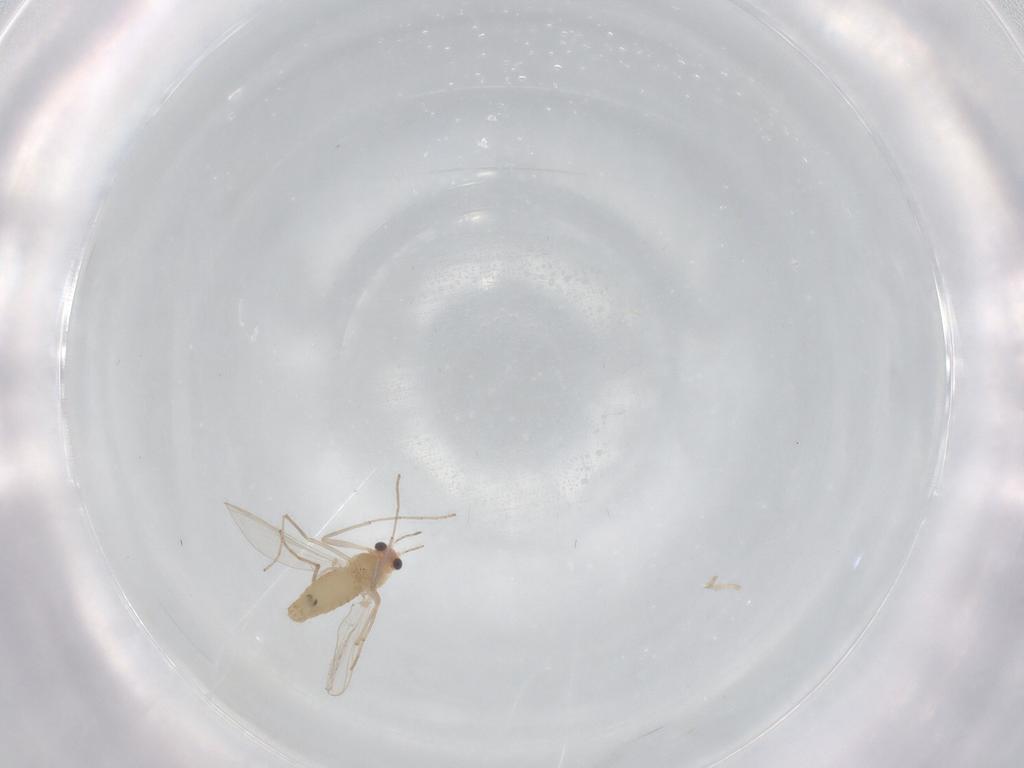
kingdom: Animalia
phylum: Arthropoda
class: Insecta
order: Diptera
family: Chironomidae
